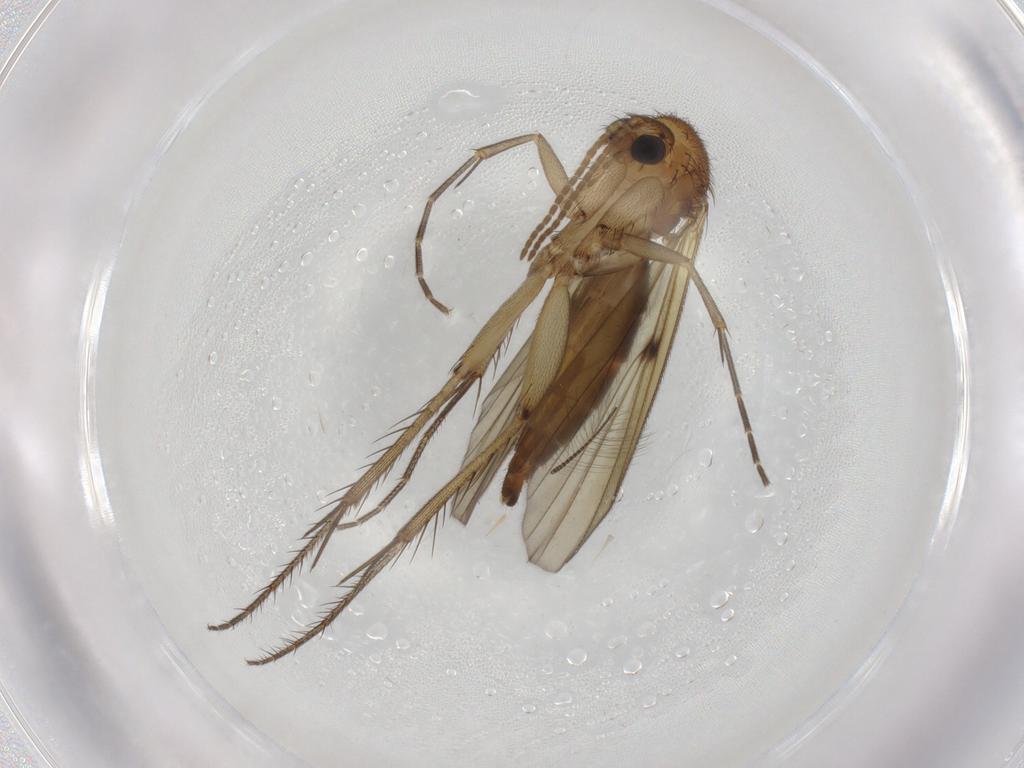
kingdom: Animalia
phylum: Arthropoda
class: Insecta
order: Diptera
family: Mycetophilidae
